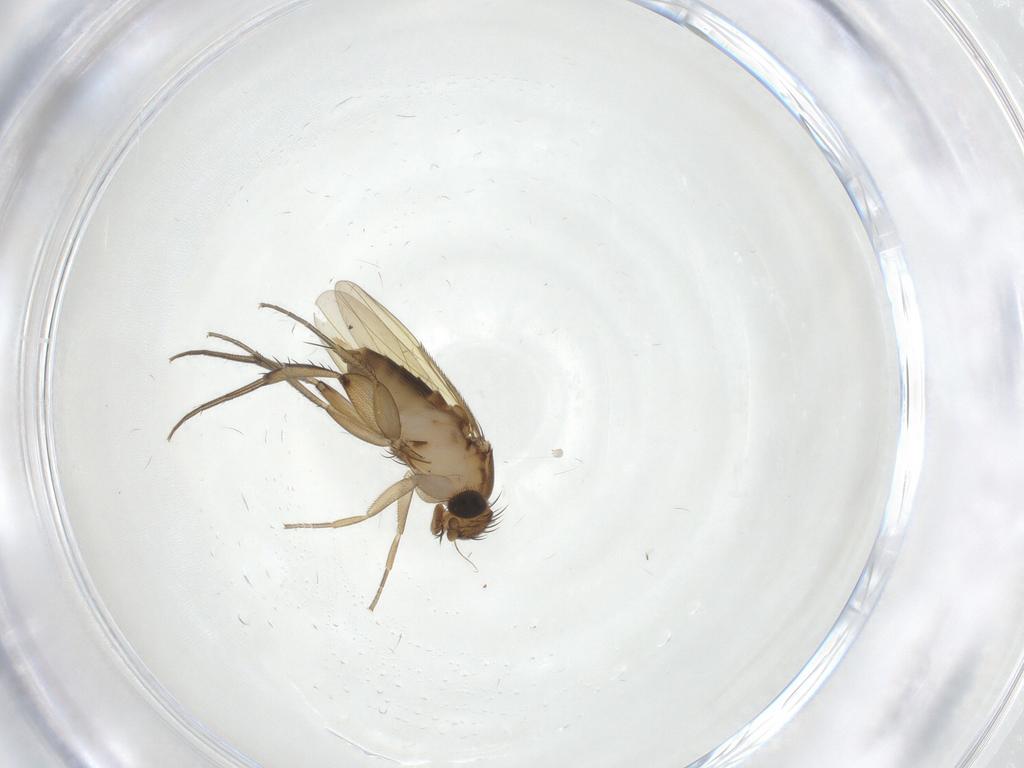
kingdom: Animalia
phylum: Arthropoda
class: Insecta
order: Diptera
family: Phoridae
